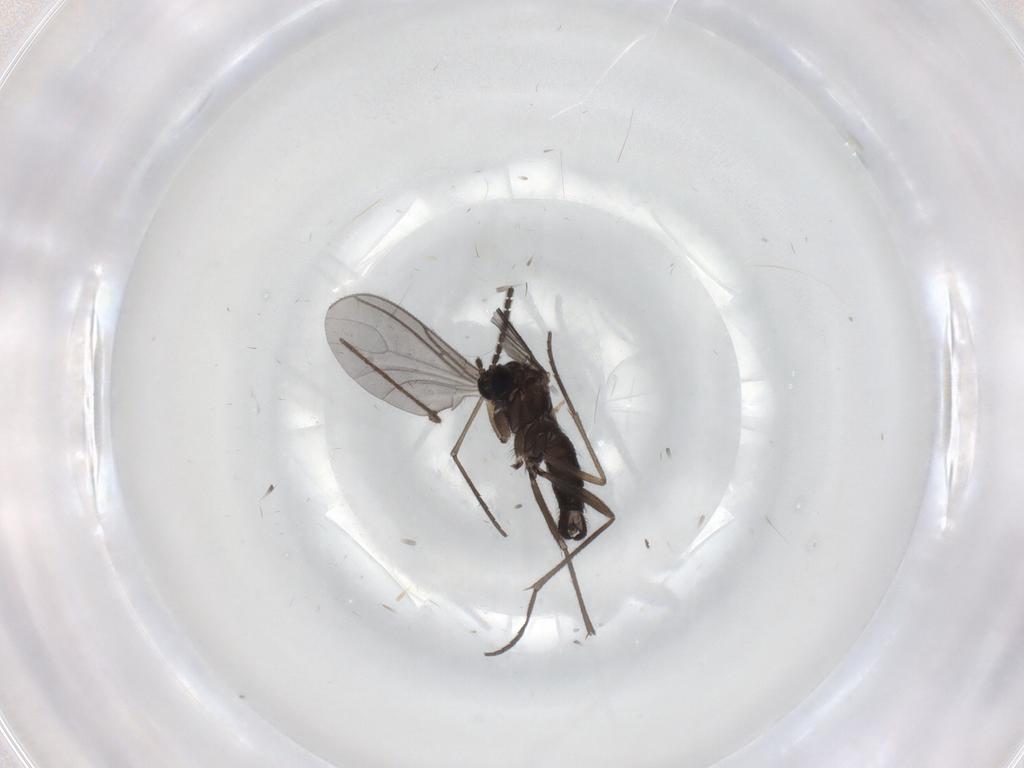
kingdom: Animalia
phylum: Arthropoda
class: Insecta
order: Diptera
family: Sciaridae
